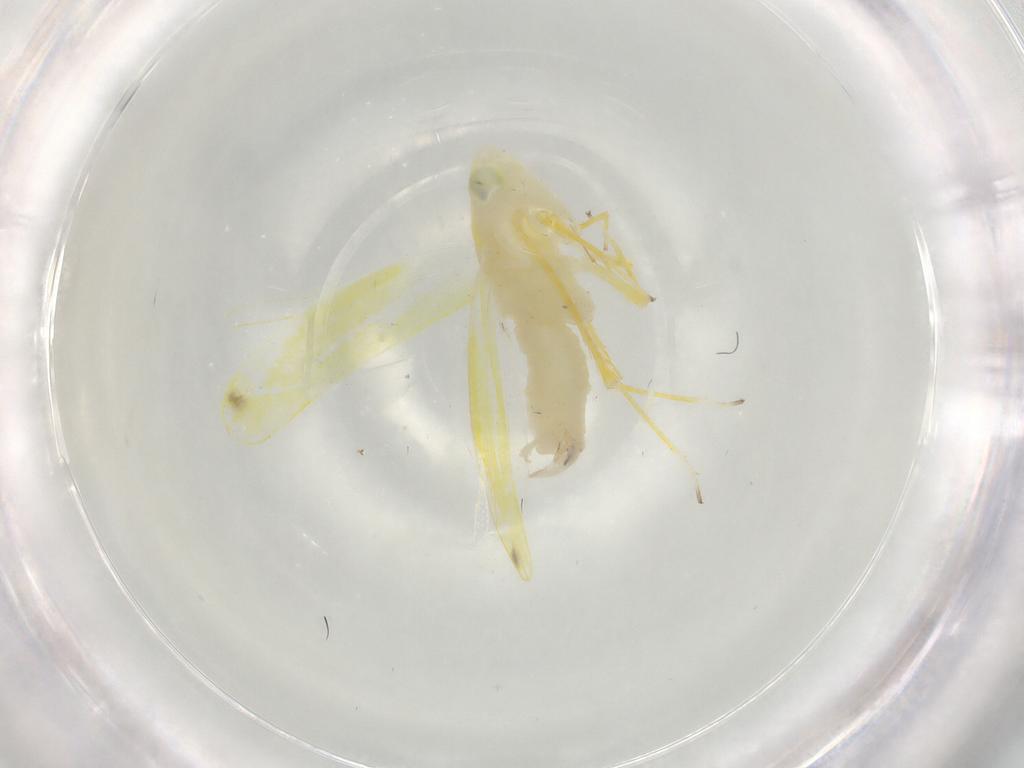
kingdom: Animalia
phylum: Arthropoda
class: Insecta
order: Hemiptera
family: Cicadellidae
